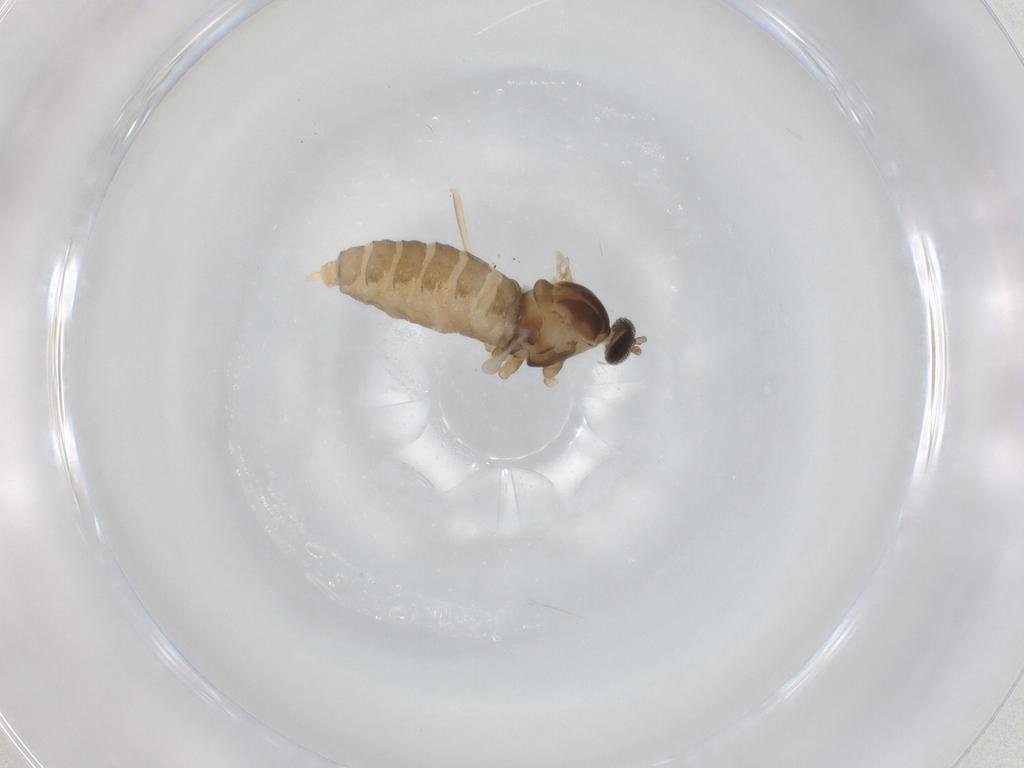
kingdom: Animalia
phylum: Arthropoda
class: Insecta
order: Diptera
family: Cecidomyiidae
